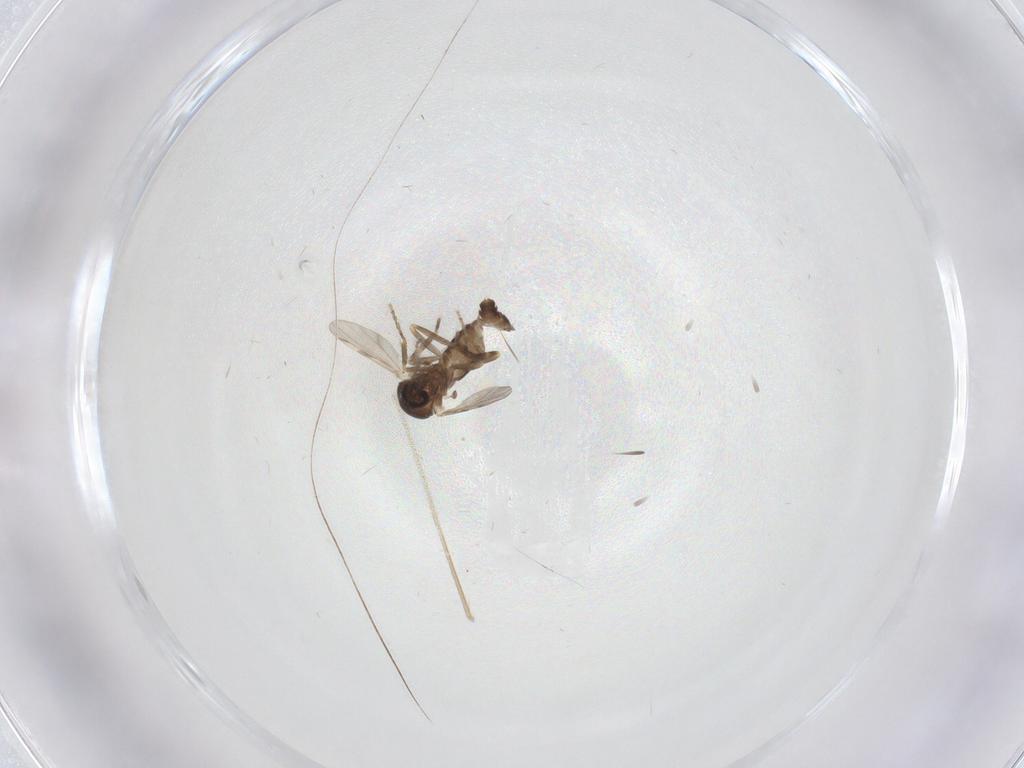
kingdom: Animalia
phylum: Arthropoda
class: Insecta
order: Diptera
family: Ceratopogonidae
